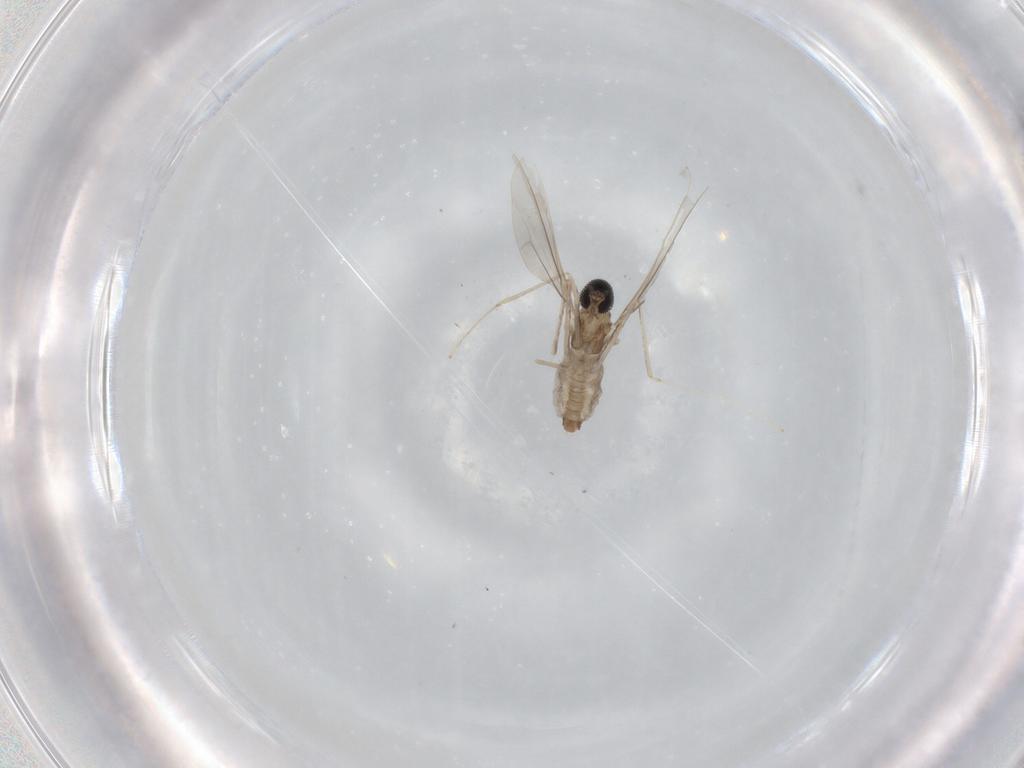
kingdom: Animalia
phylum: Arthropoda
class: Insecta
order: Diptera
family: Cecidomyiidae
